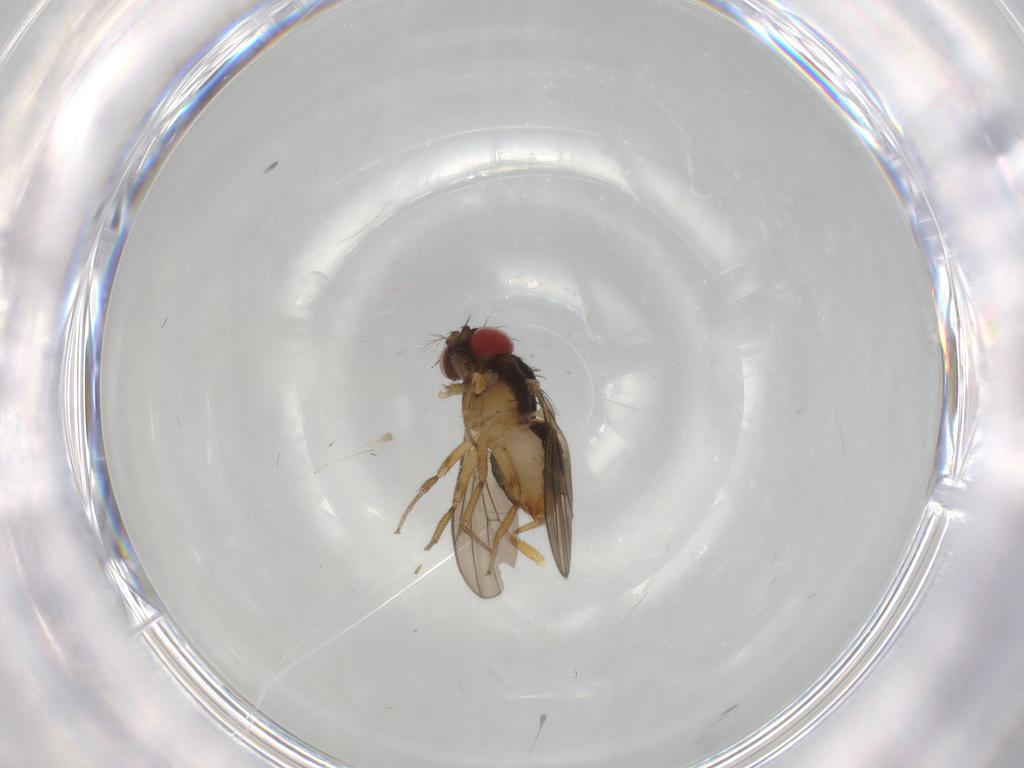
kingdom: Animalia
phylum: Arthropoda
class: Insecta
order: Diptera
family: Drosophilidae
